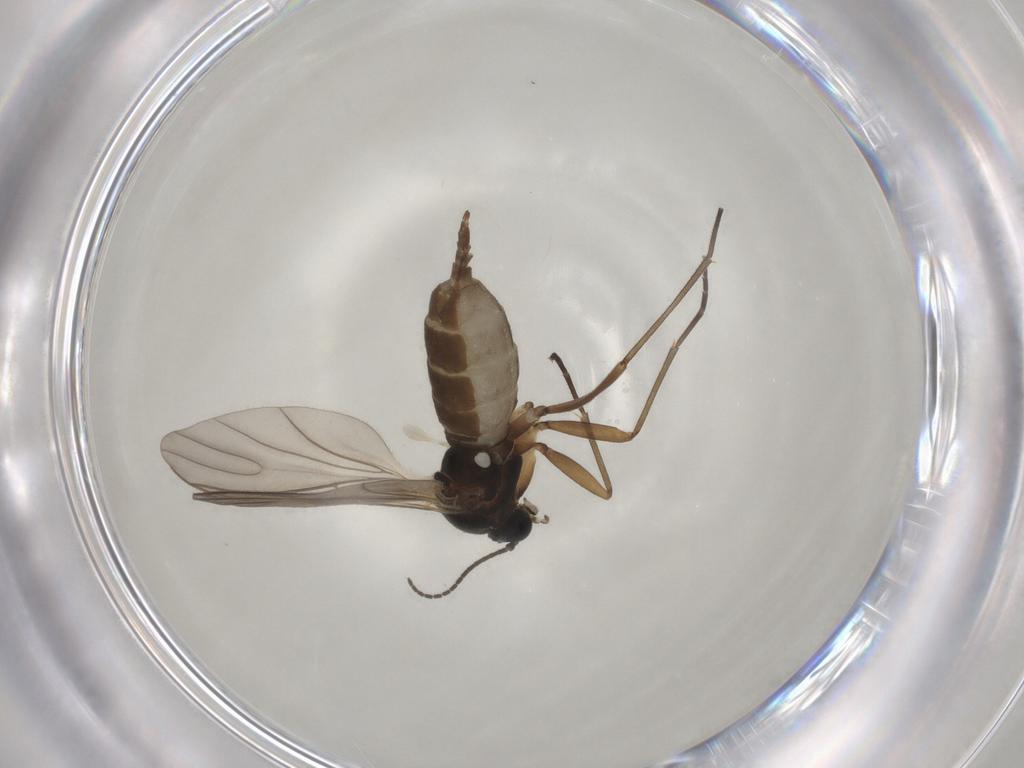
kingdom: Animalia
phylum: Arthropoda
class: Insecta
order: Diptera
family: Sciaridae
